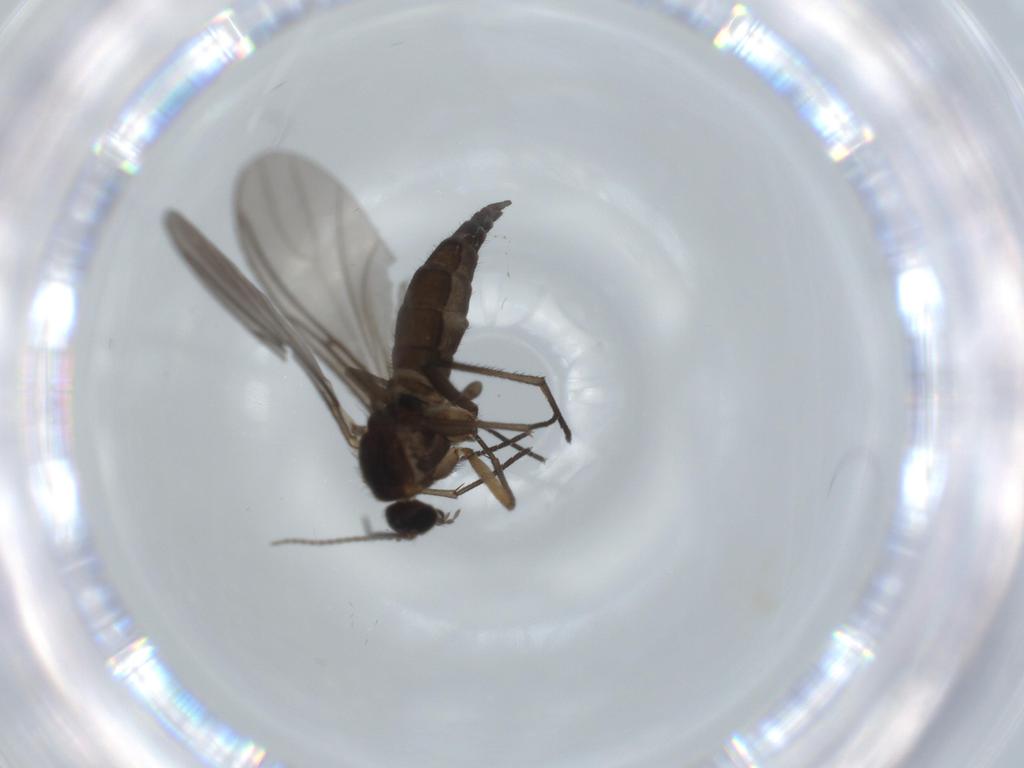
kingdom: Animalia
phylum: Arthropoda
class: Insecta
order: Diptera
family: Sciaridae
